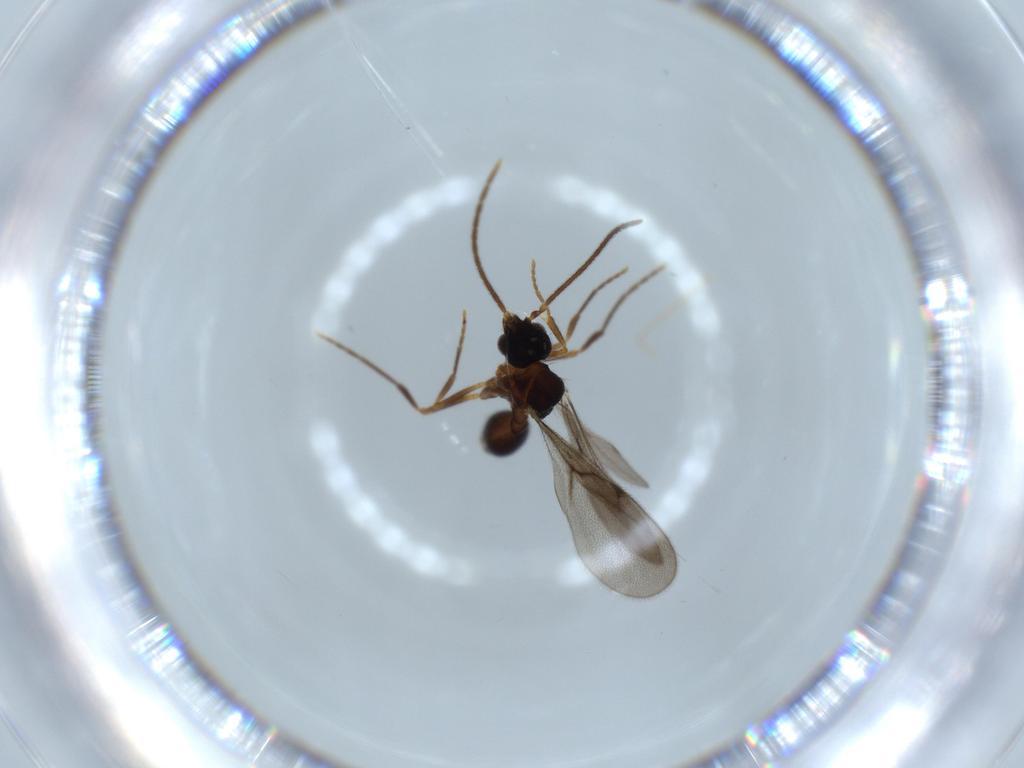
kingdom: Animalia
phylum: Arthropoda
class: Insecta
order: Hymenoptera
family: Formicidae
